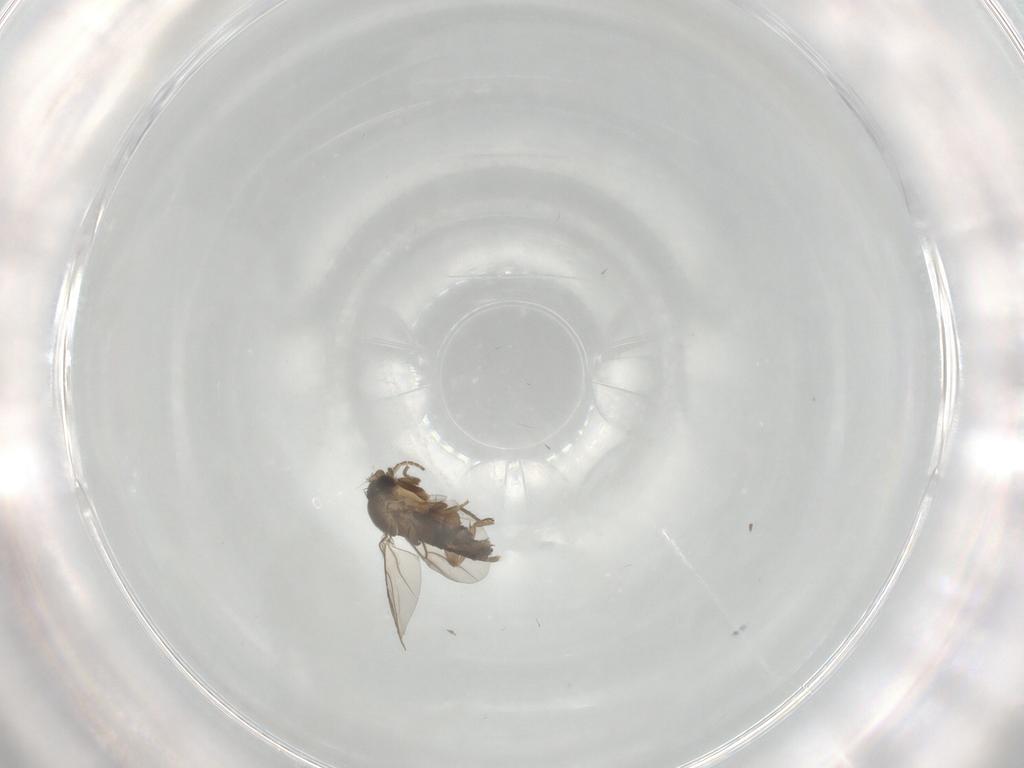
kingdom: Animalia
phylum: Arthropoda
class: Insecta
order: Diptera
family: Phoridae
